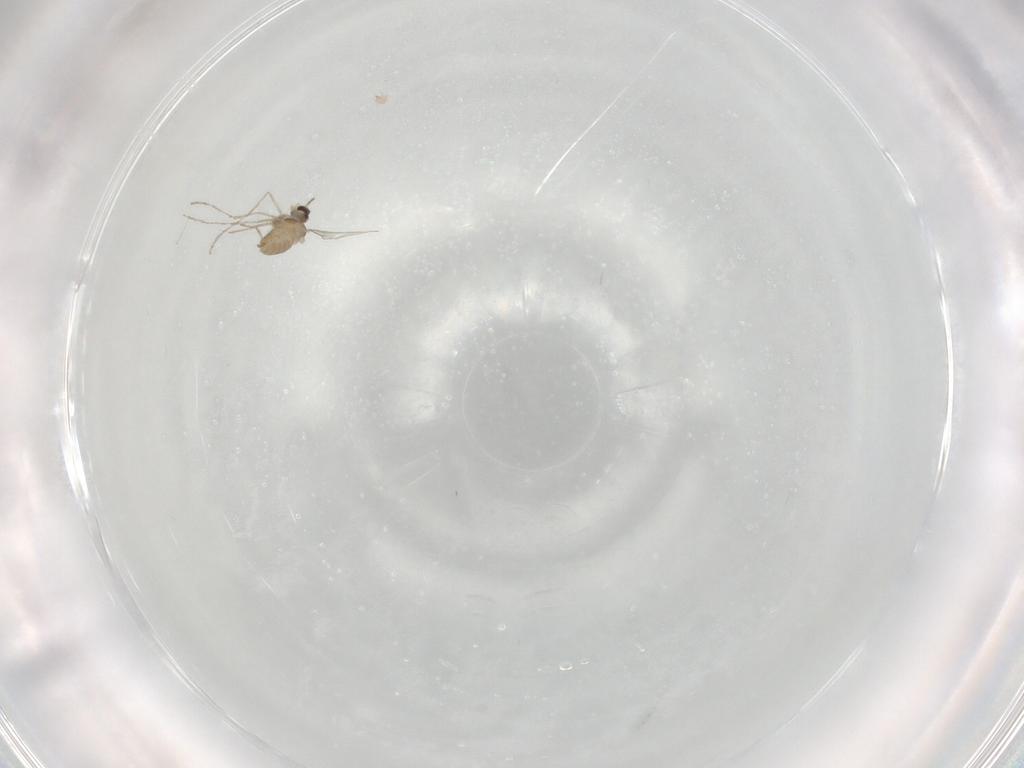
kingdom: Animalia
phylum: Arthropoda
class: Insecta
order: Diptera
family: Cecidomyiidae
